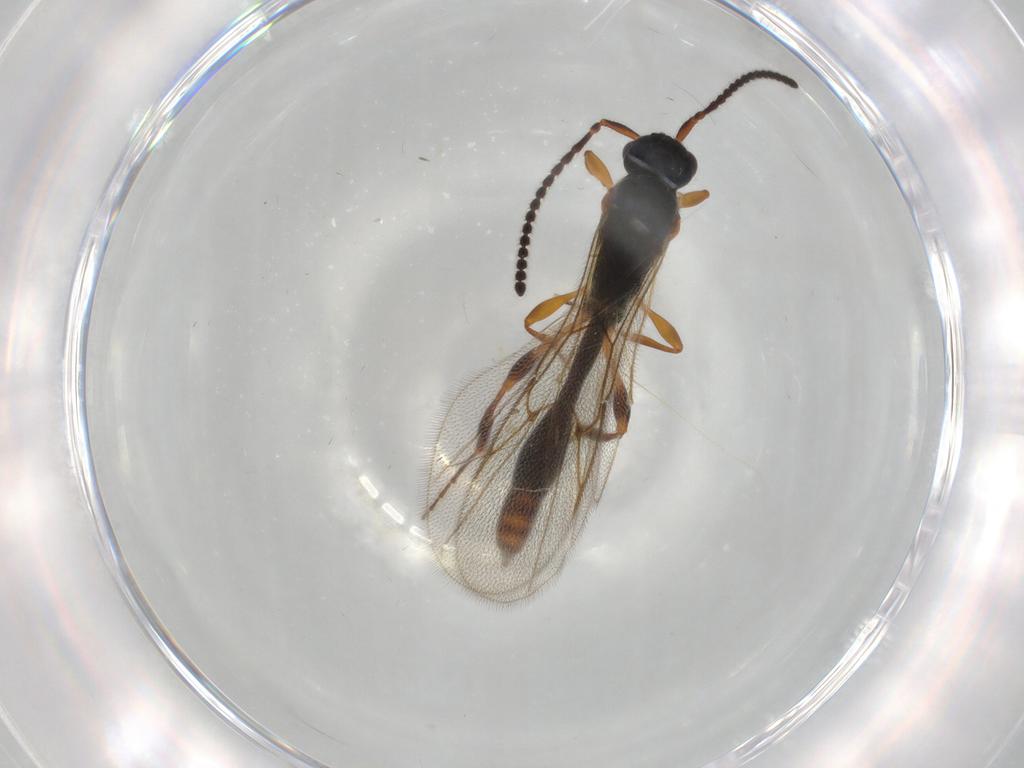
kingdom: Animalia
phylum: Arthropoda
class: Insecta
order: Hymenoptera
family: Diapriidae
